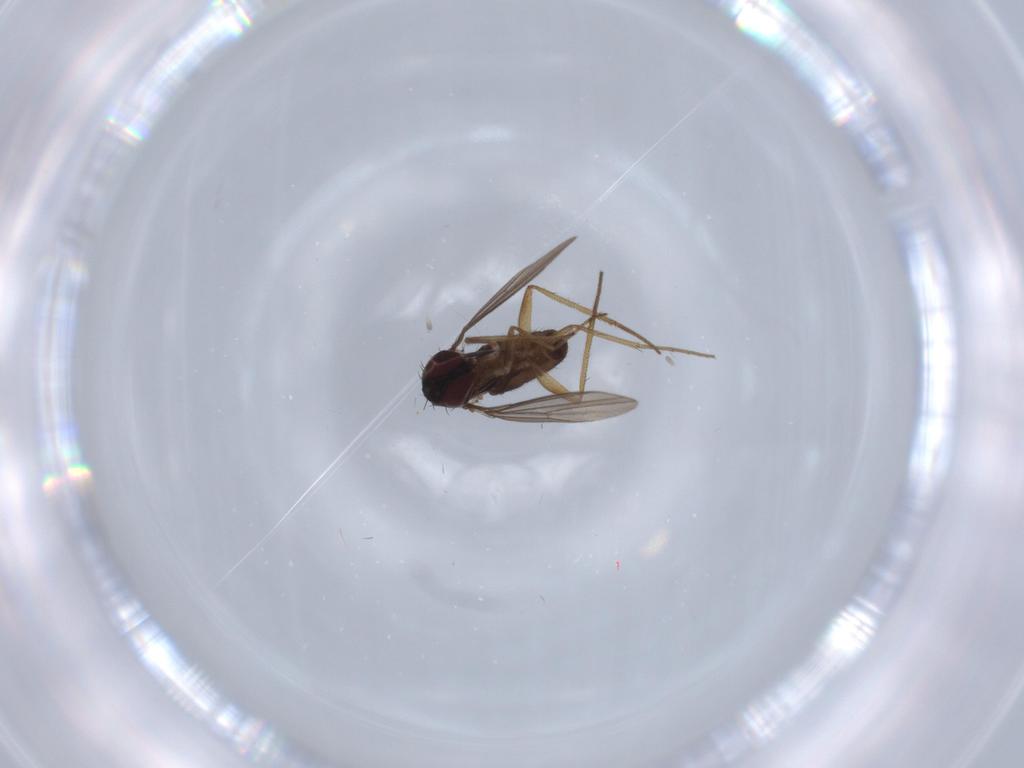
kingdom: Animalia
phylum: Arthropoda
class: Insecta
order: Diptera
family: Dolichopodidae
